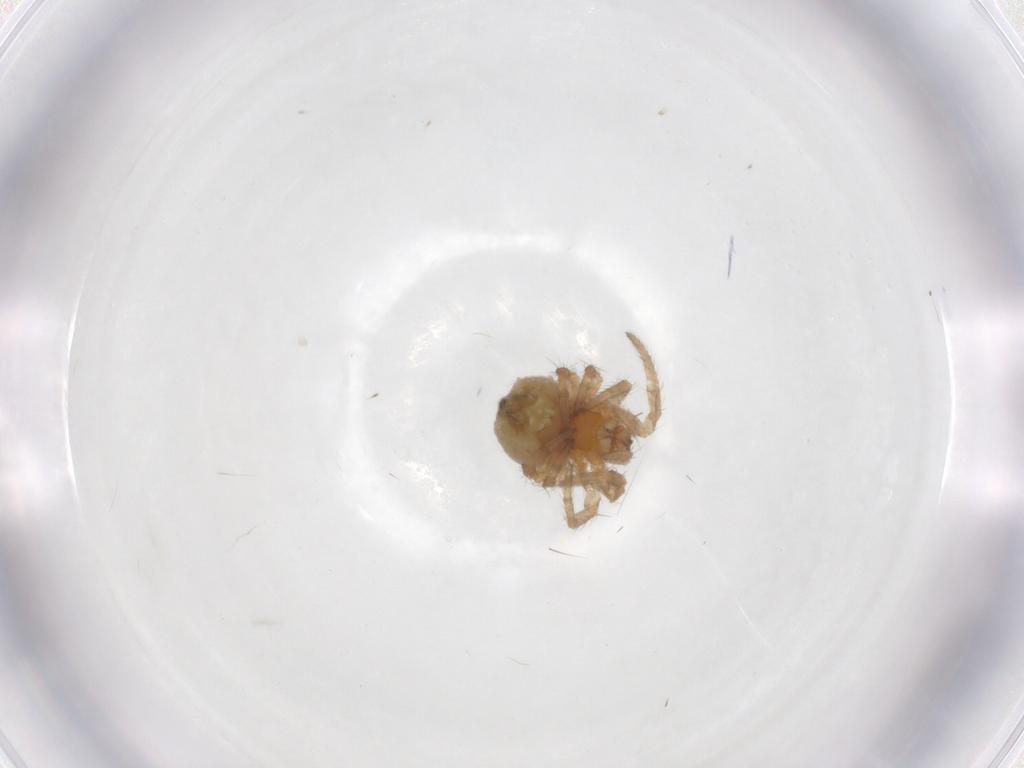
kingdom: Animalia
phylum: Arthropoda
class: Arachnida
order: Araneae
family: Araneidae
